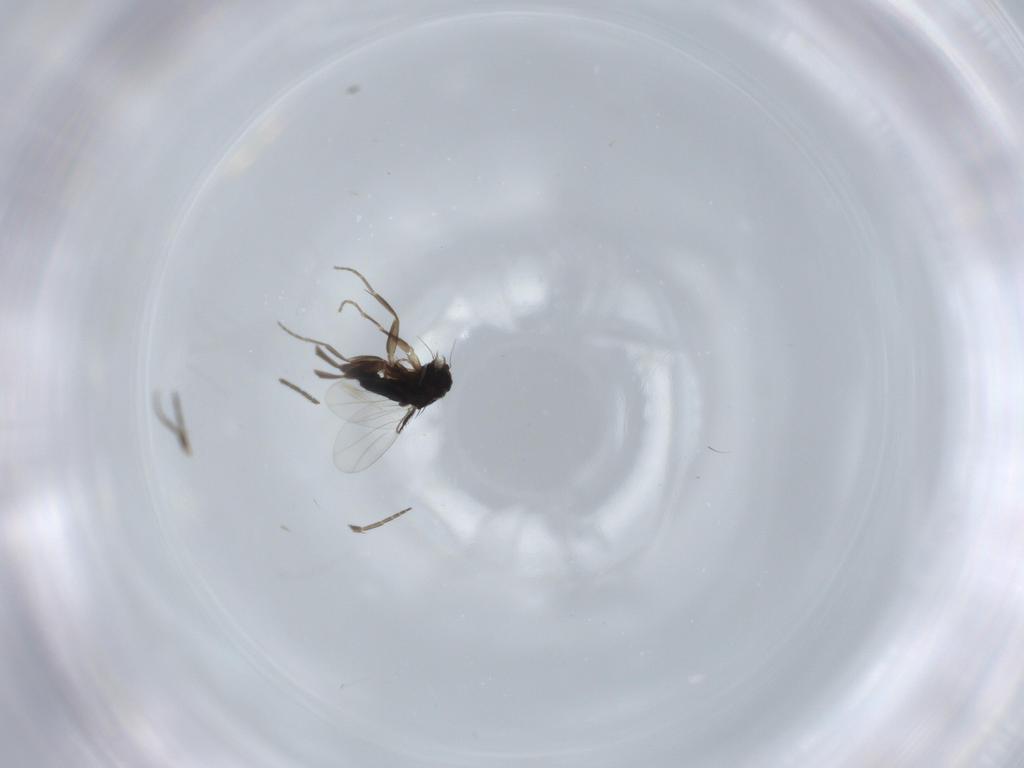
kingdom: Animalia
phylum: Arthropoda
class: Insecta
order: Diptera
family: Phoridae
